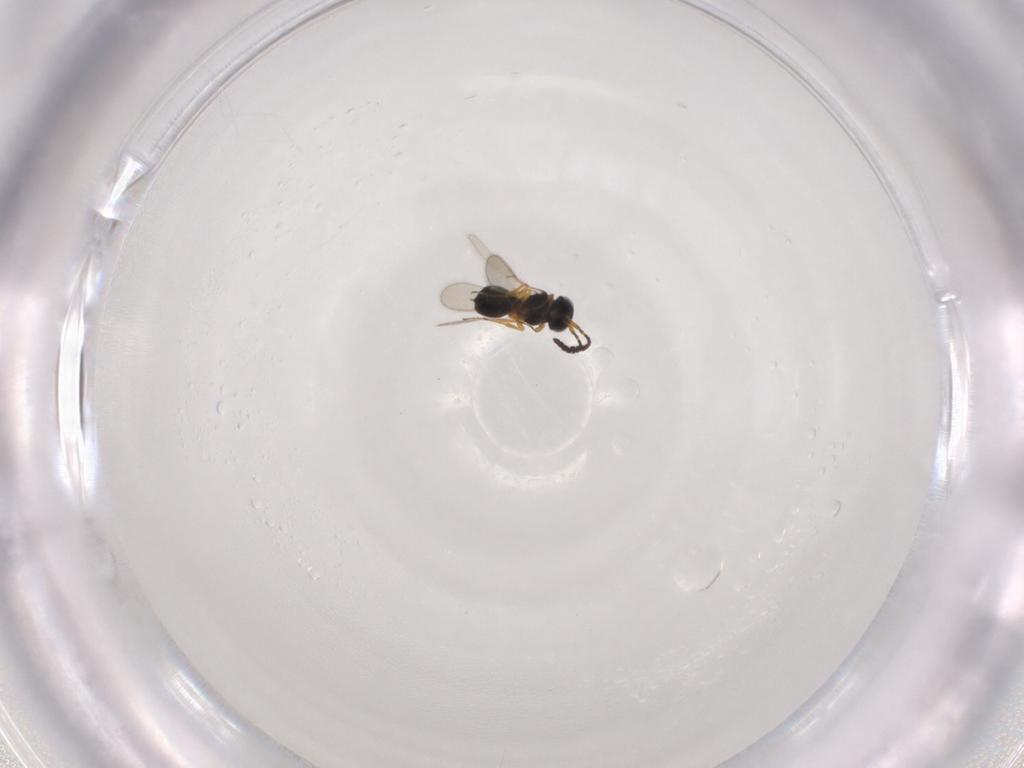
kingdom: Animalia
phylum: Arthropoda
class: Insecta
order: Hymenoptera
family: Scelionidae
